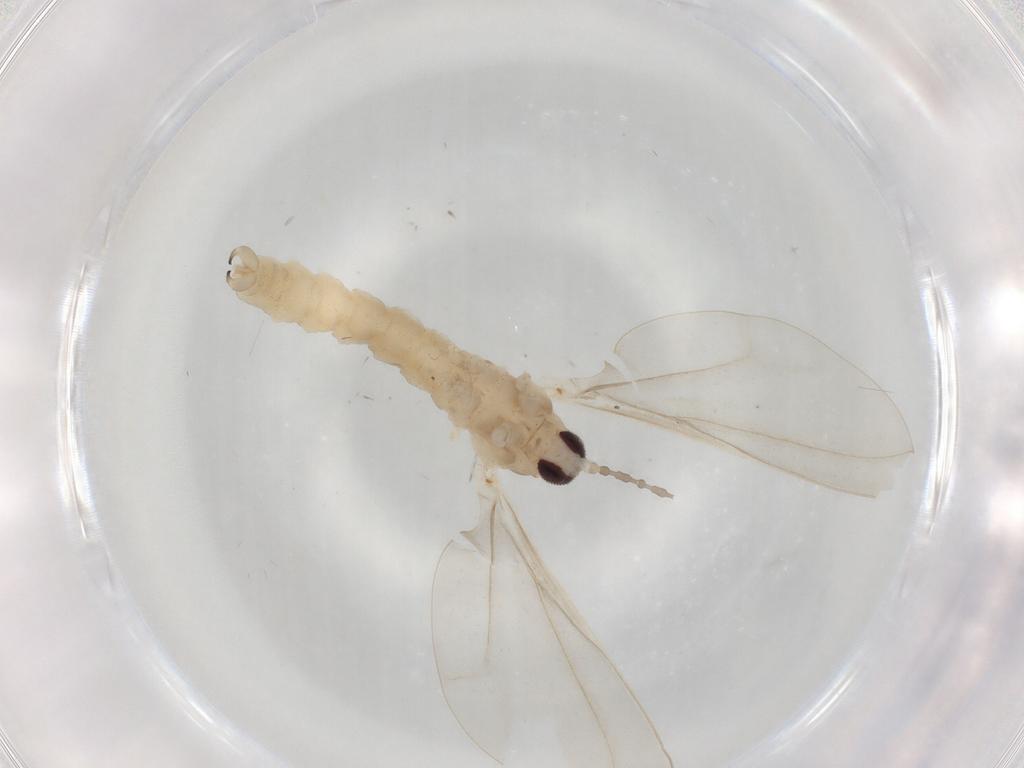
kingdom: Animalia
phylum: Arthropoda
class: Insecta
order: Diptera
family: Cecidomyiidae
